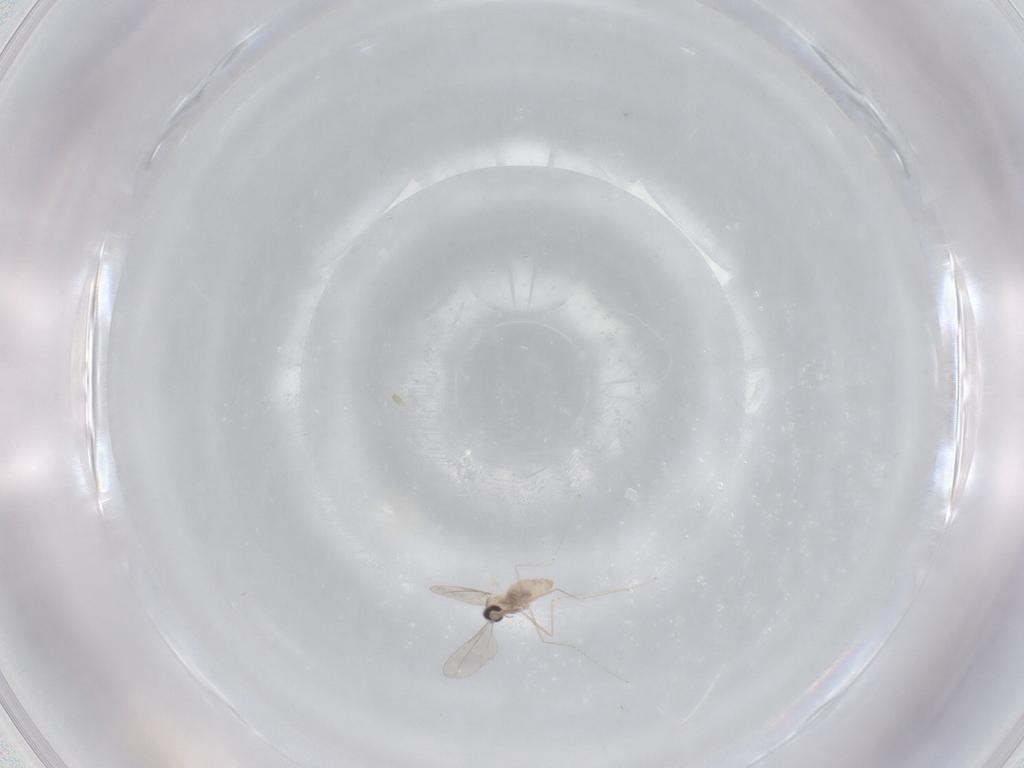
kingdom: Animalia
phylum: Arthropoda
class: Insecta
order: Diptera
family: Cecidomyiidae
